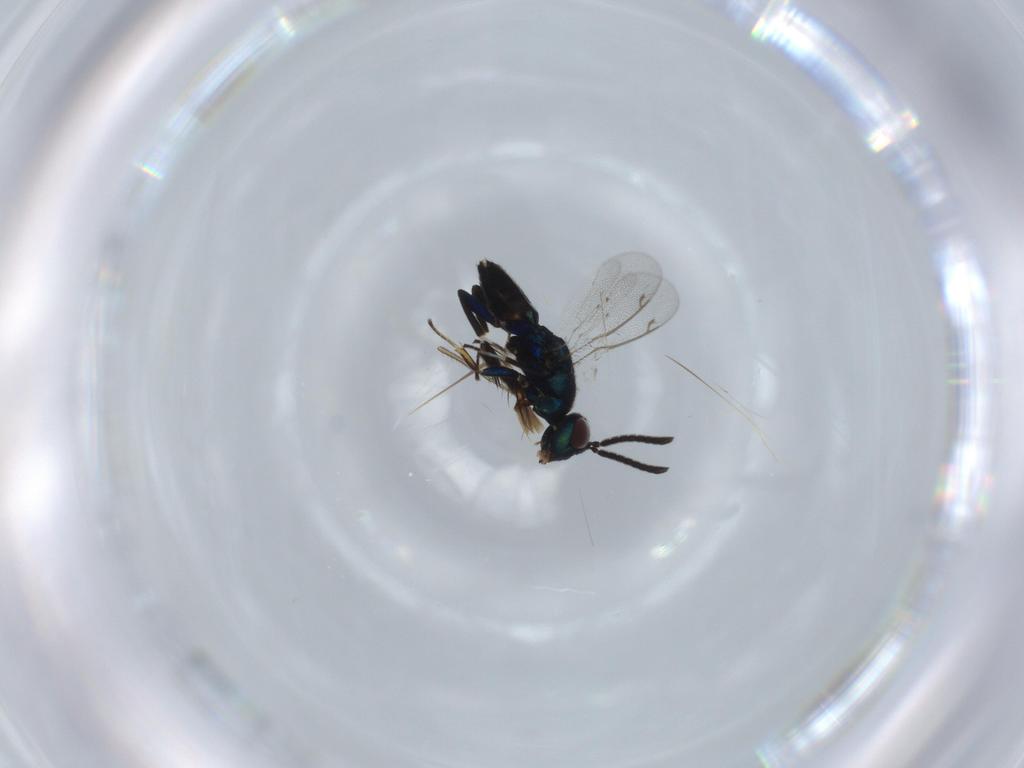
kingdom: Animalia
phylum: Arthropoda
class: Insecta
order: Hymenoptera
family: Eupelmidae
